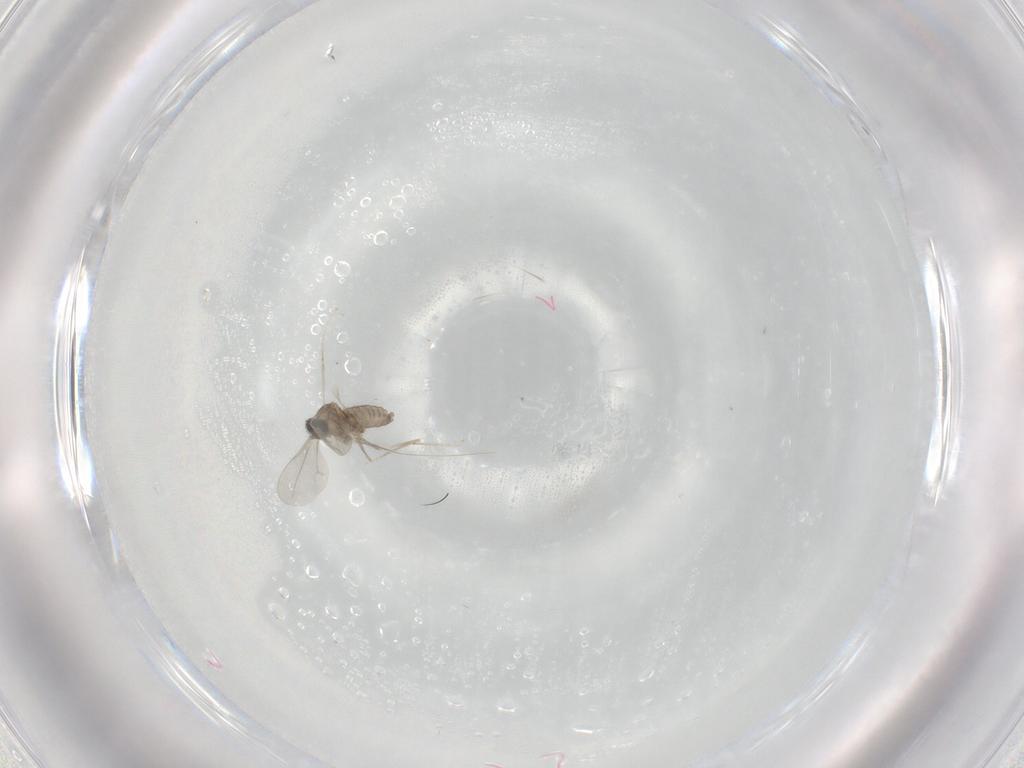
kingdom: Animalia
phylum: Arthropoda
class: Insecta
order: Diptera
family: Cecidomyiidae
